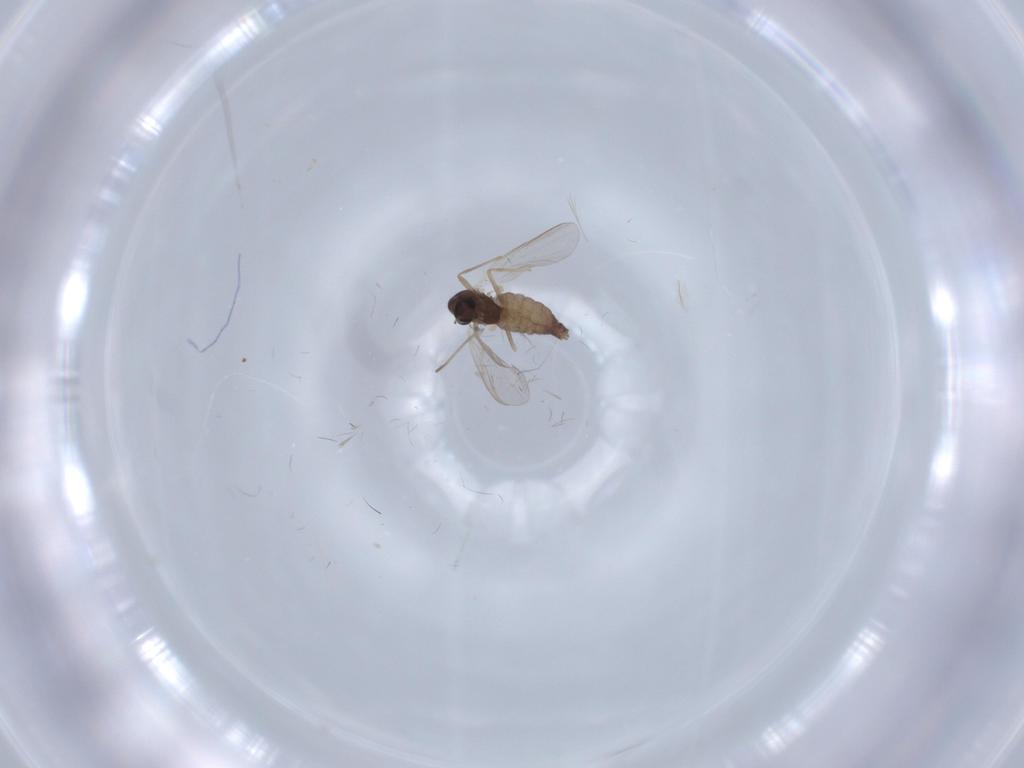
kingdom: Animalia
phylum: Arthropoda
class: Insecta
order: Diptera
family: Chironomidae
